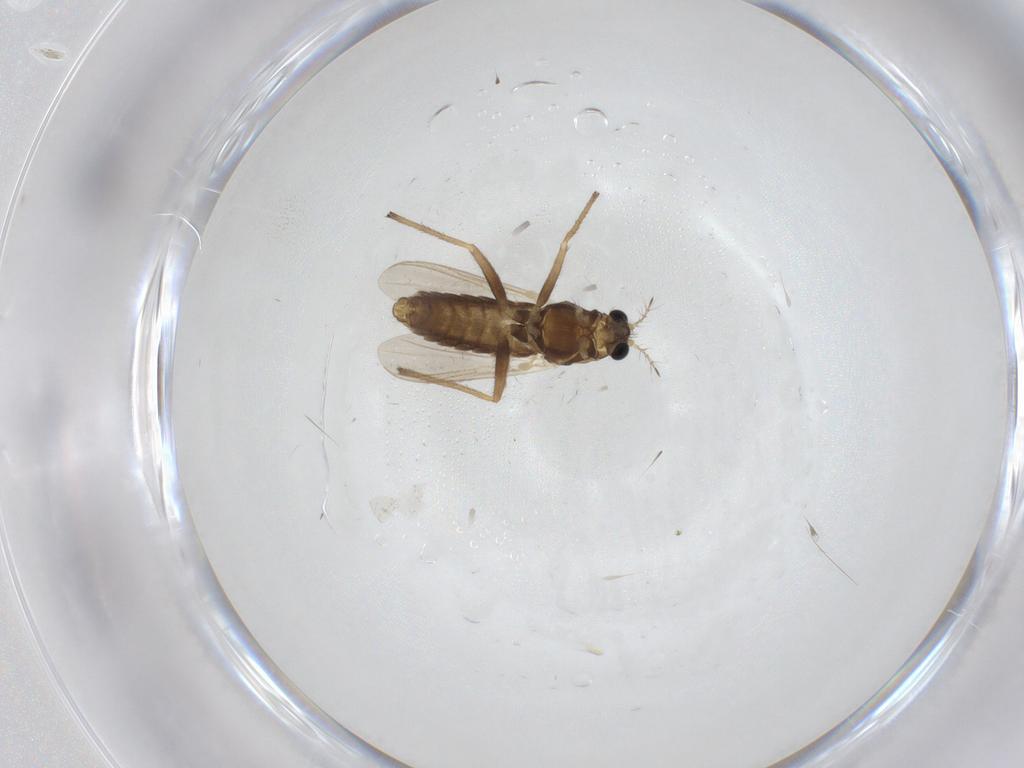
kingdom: Animalia
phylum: Arthropoda
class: Insecta
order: Diptera
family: Chironomidae
